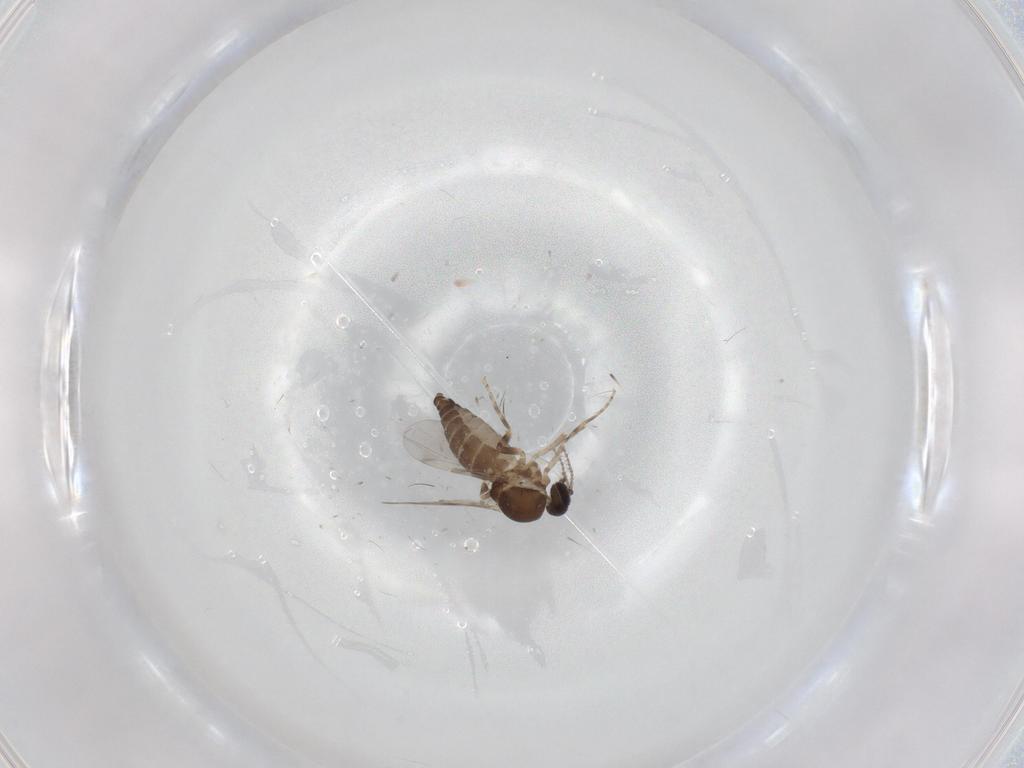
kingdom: Animalia
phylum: Arthropoda
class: Insecta
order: Diptera
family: Ceratopogonidae
